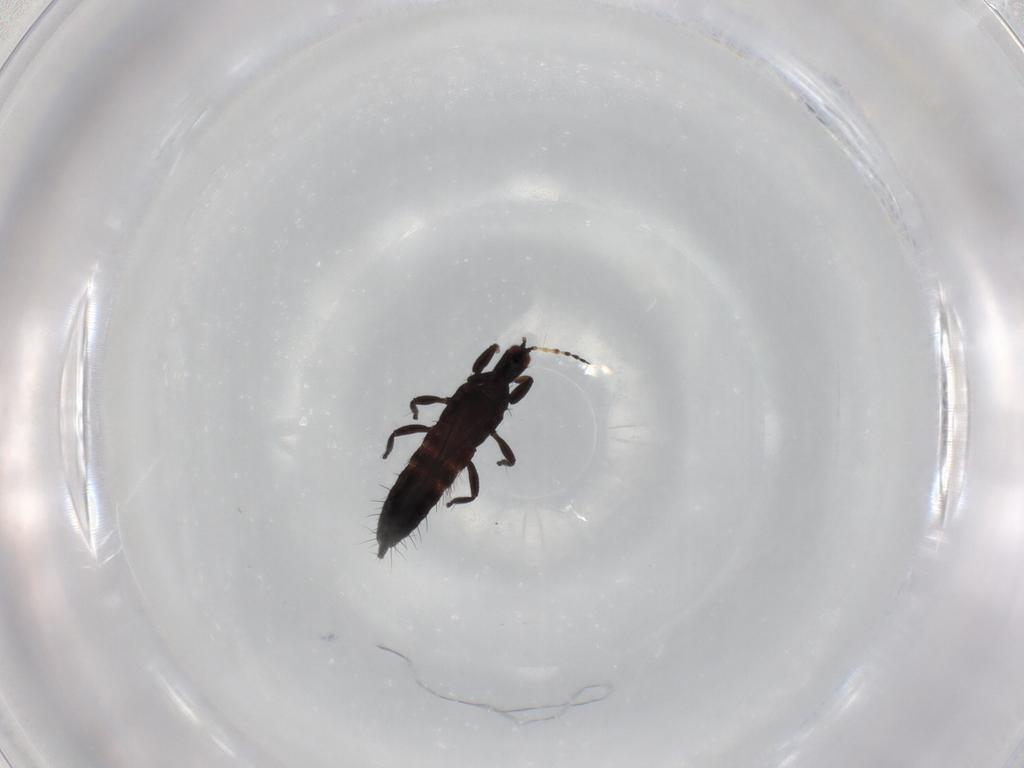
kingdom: Animalia
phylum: Arthropoda
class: Insecta
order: Thysanoptera
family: Phlaeothripidae
